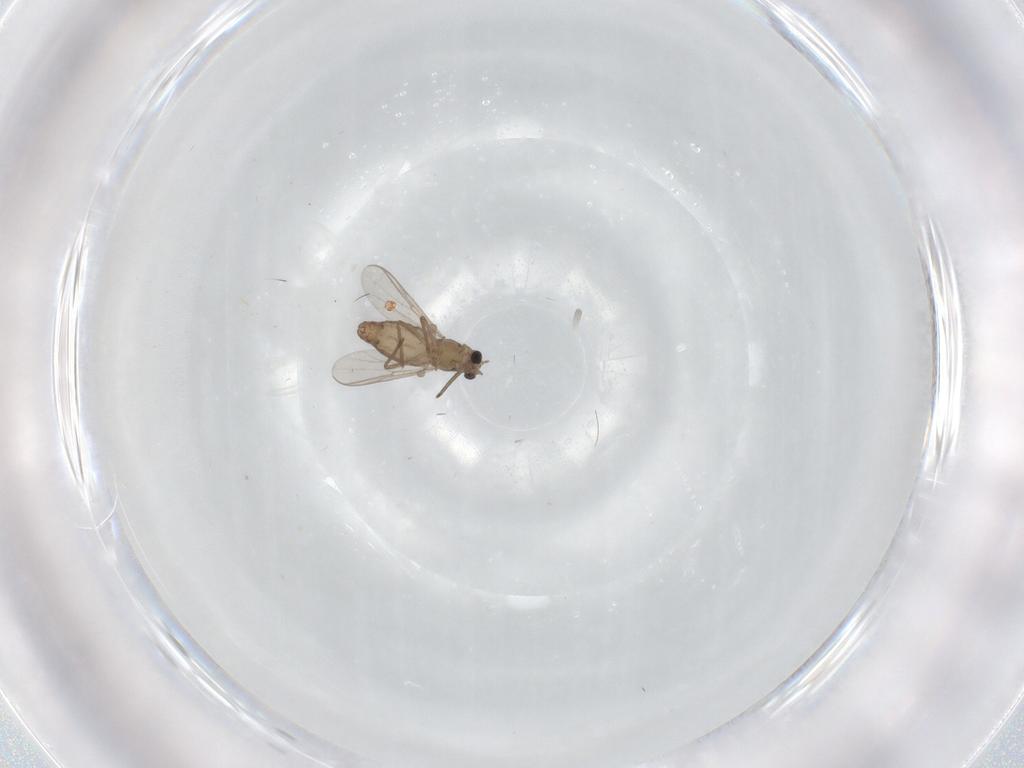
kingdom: Animalia
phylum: Arthropoda
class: Insecta
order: Diptera
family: Chironomidae
